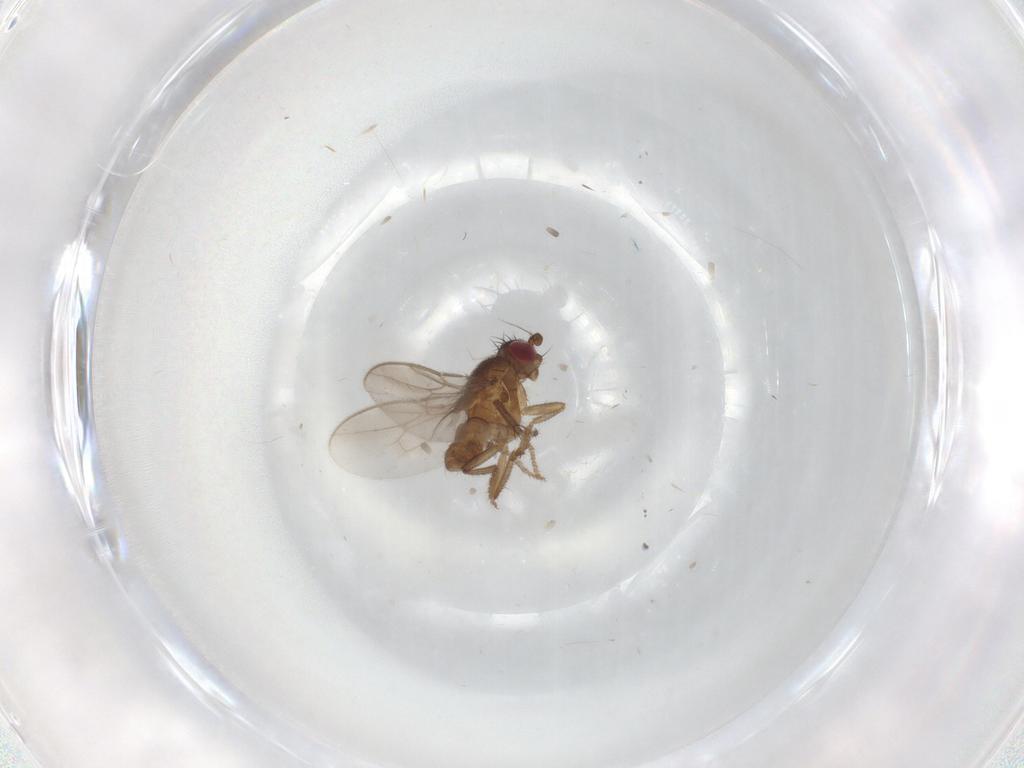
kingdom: Animalia
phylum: Arthropoda
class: Insecta
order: Diptera
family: Sphaeroceridae
